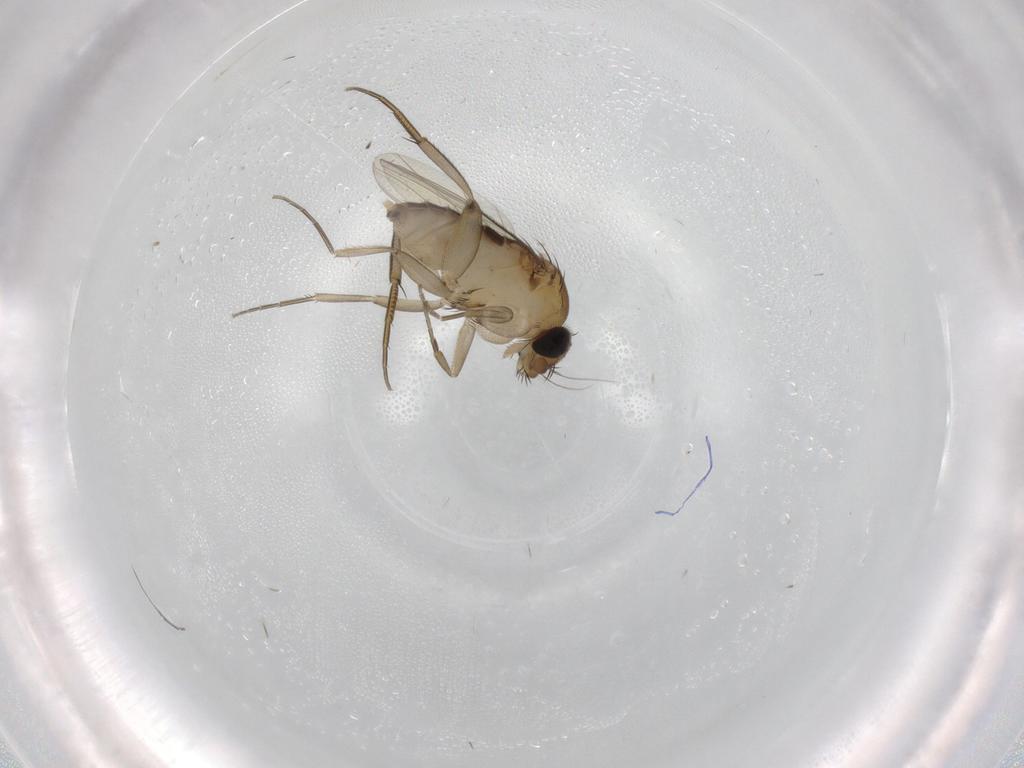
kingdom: Animalia
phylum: Arthropoda
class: Insecta
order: Diptera
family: Phoridae
